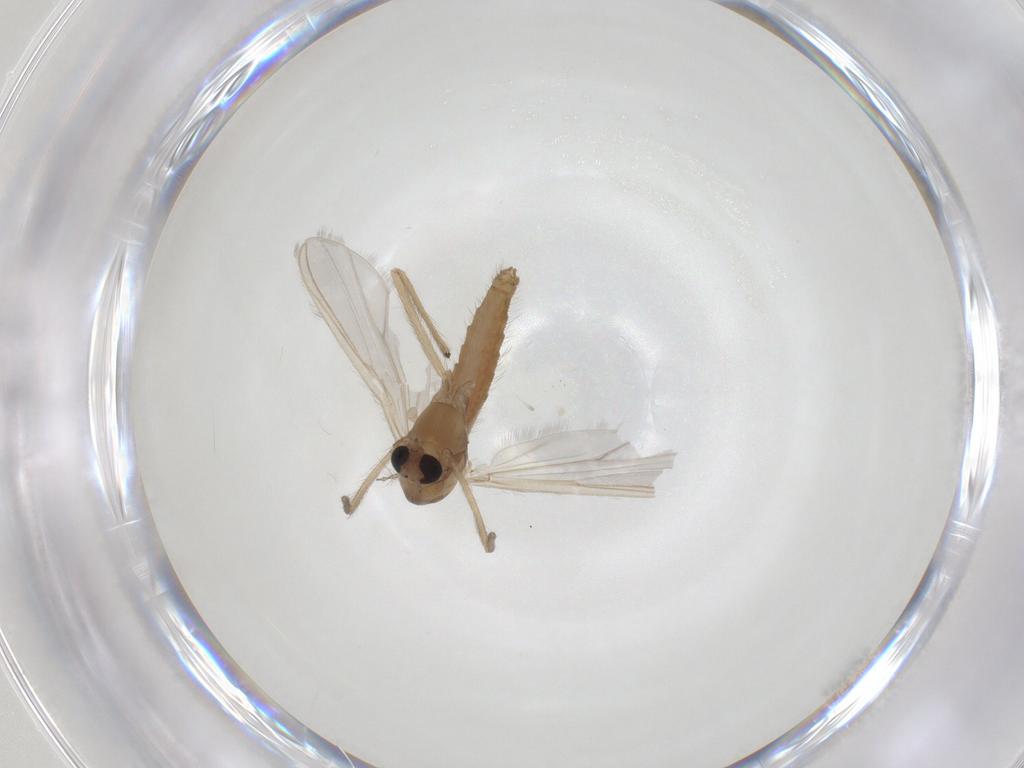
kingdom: Animalia
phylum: Arthropoda
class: Insecta
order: Diptera
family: Chironomidae
